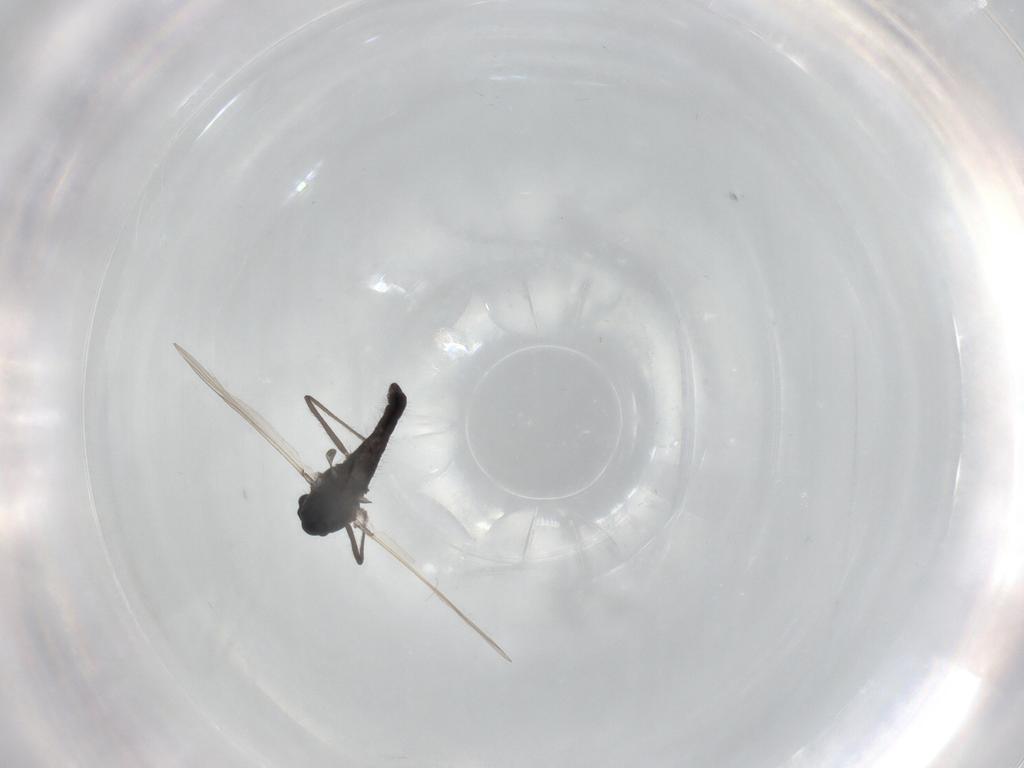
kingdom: Animalia
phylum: Arthropoda
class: Insecta
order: Diptera
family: Chironomidae
